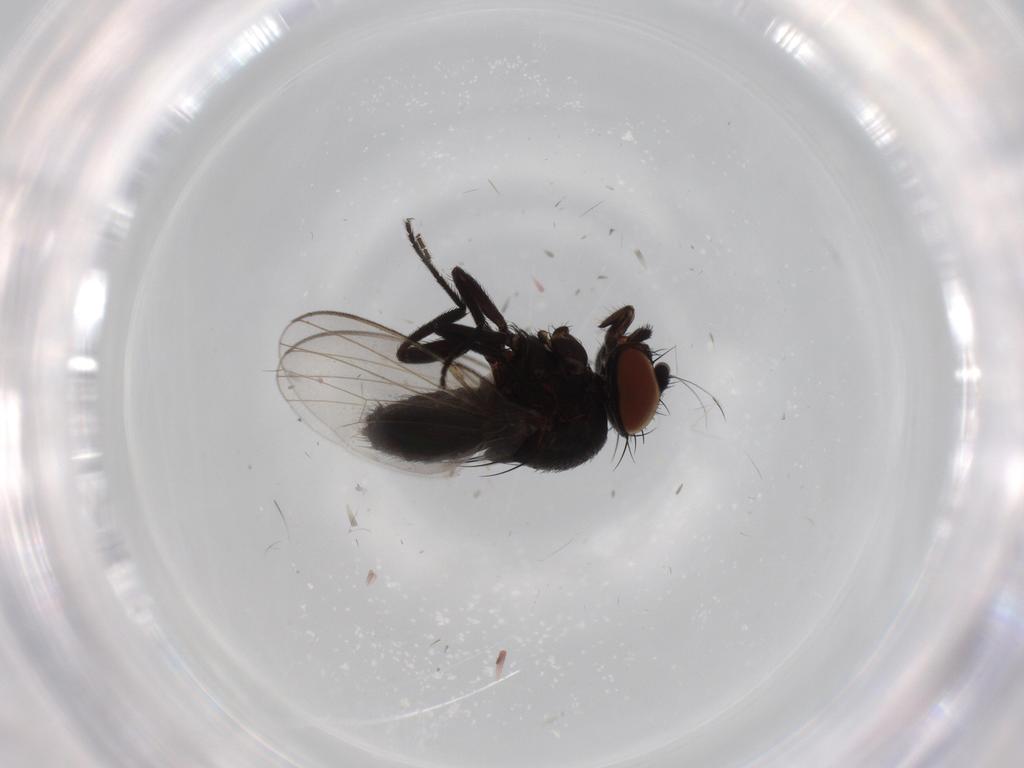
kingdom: Animalia
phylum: Arthropoda
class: Insecta
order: Diptera
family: Milichiidae
